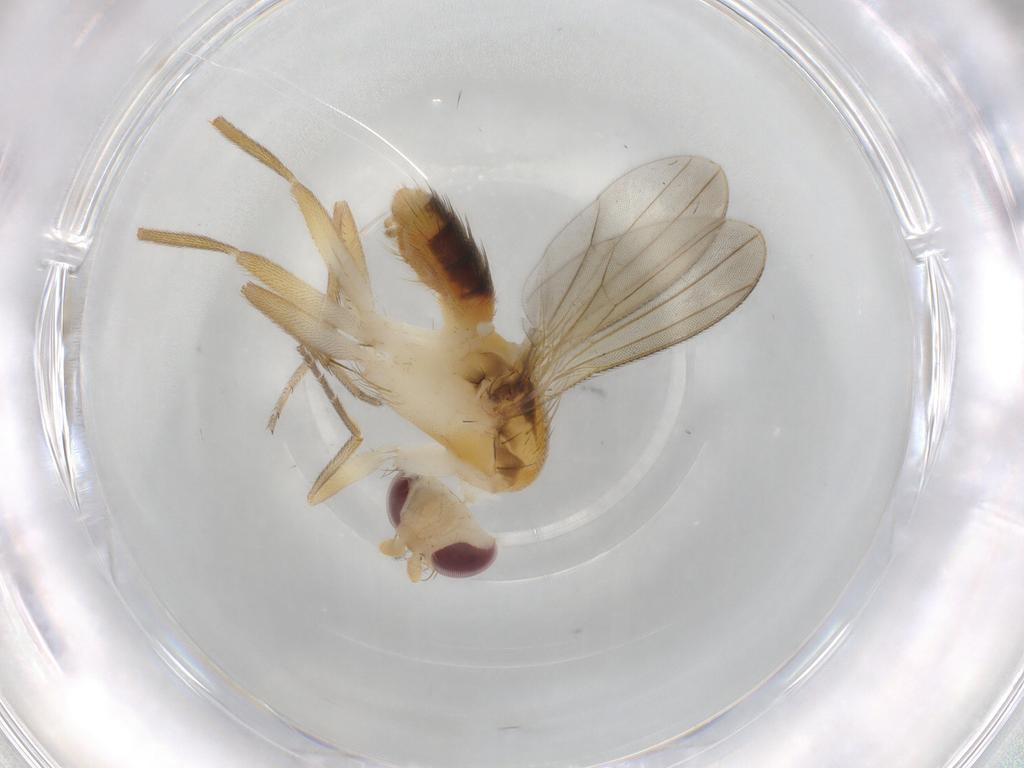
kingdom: Animalia
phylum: Arthropoda
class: Insecta
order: Diptera
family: Agromyzidae
